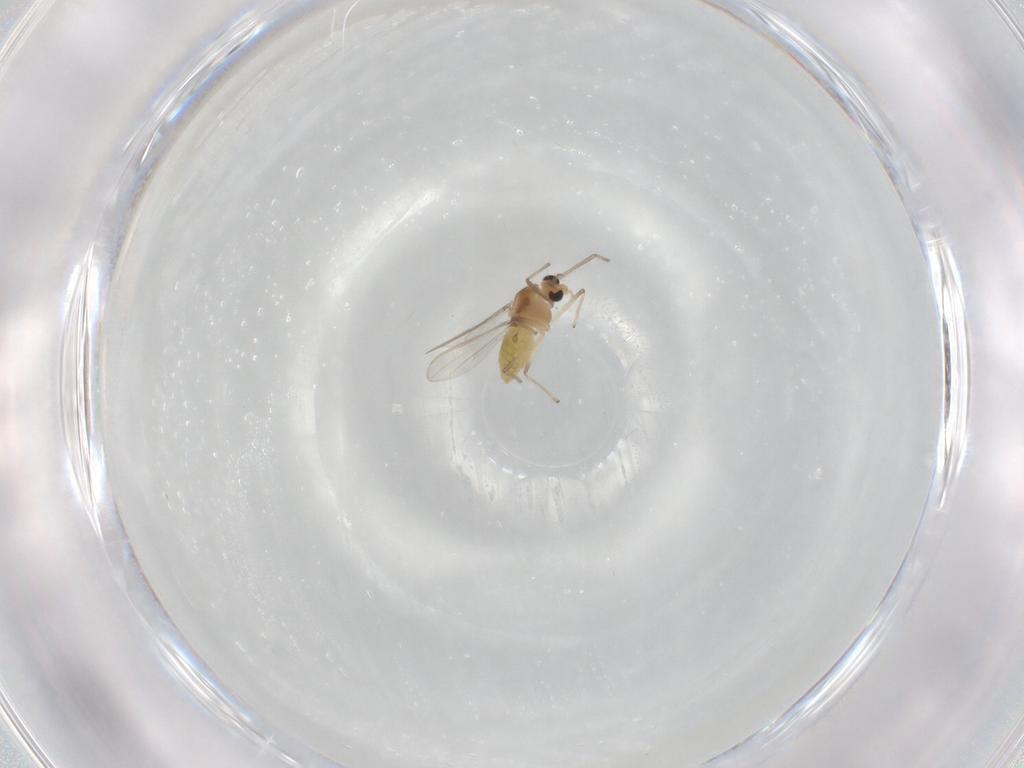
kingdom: Animalia
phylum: Arthropoda
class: Insecta
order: Diptera
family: Chironomidae
